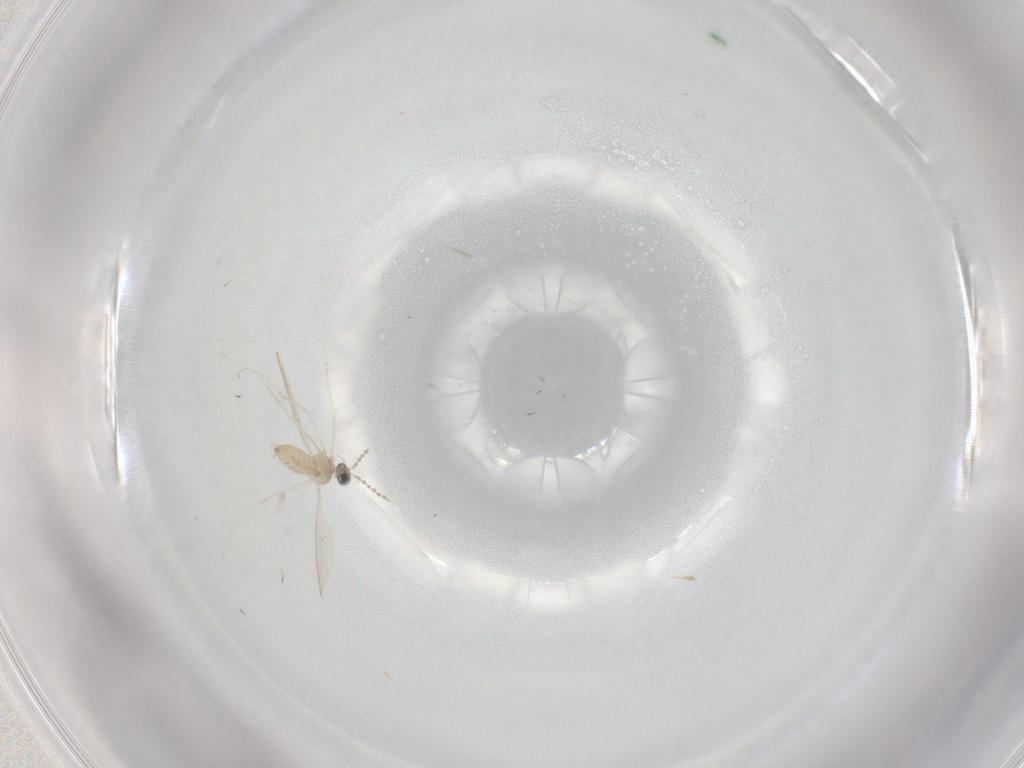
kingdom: Animalia
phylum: Arthropoda
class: Insecta
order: Diptera
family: Cecidomyiidae
